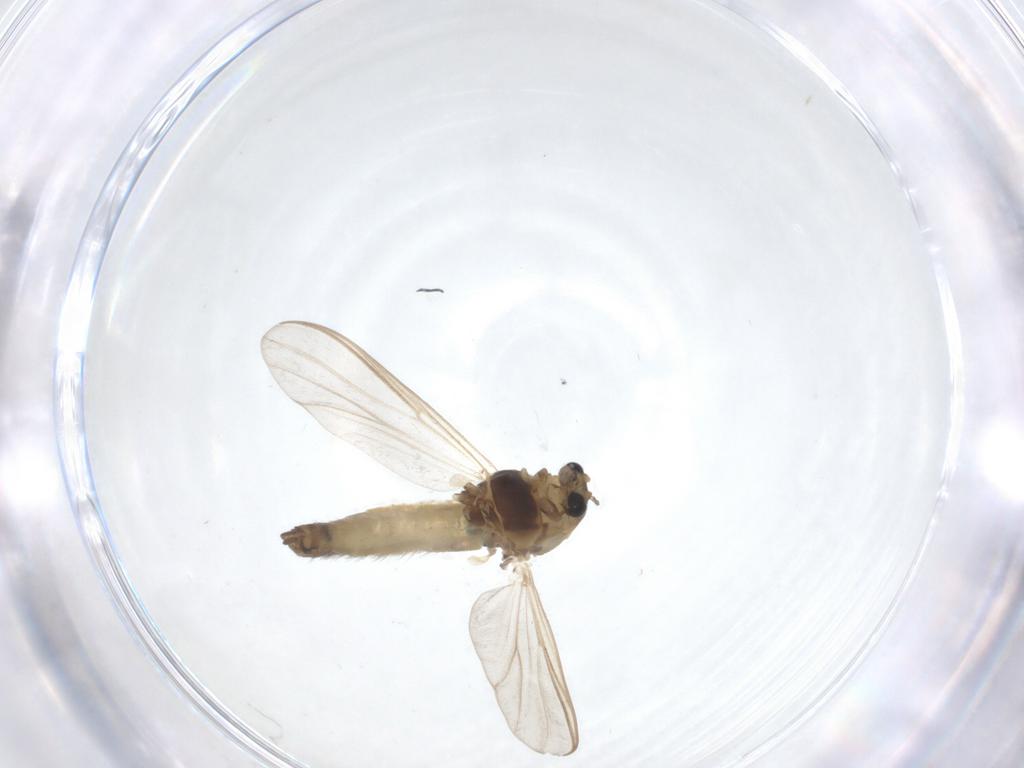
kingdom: Animalia
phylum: Arthropoda
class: Insecta
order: Diptera
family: Chironomidae
